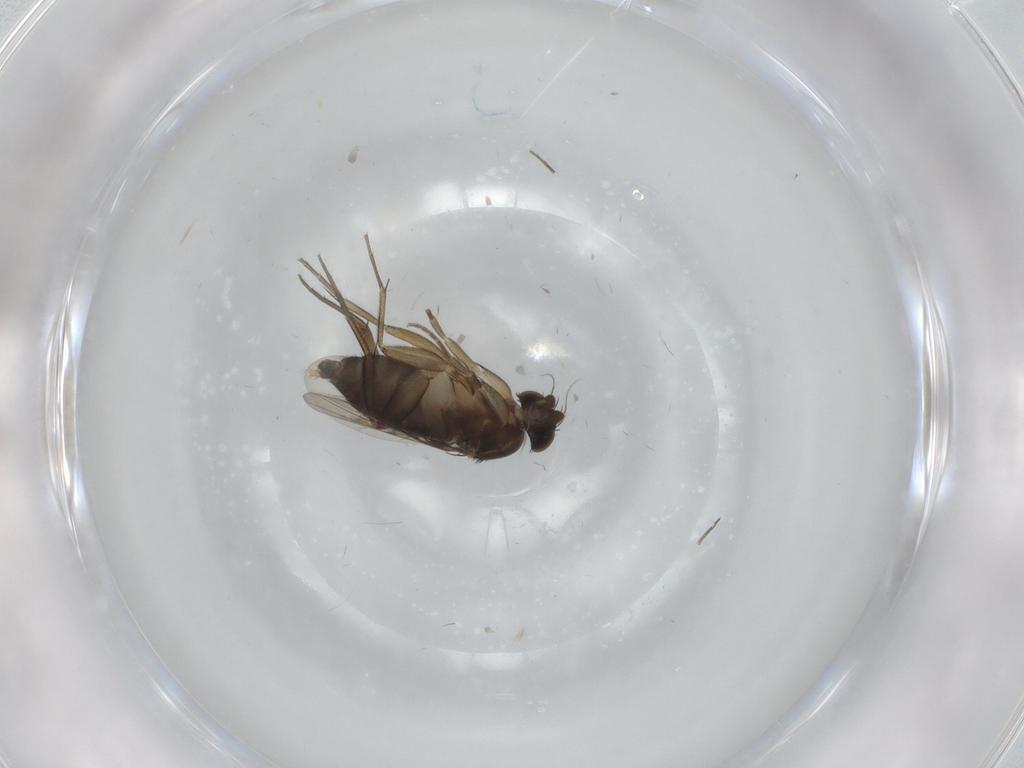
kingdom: Animalia
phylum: Arthropoda
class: Insecta
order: Diptera
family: Phoridae
